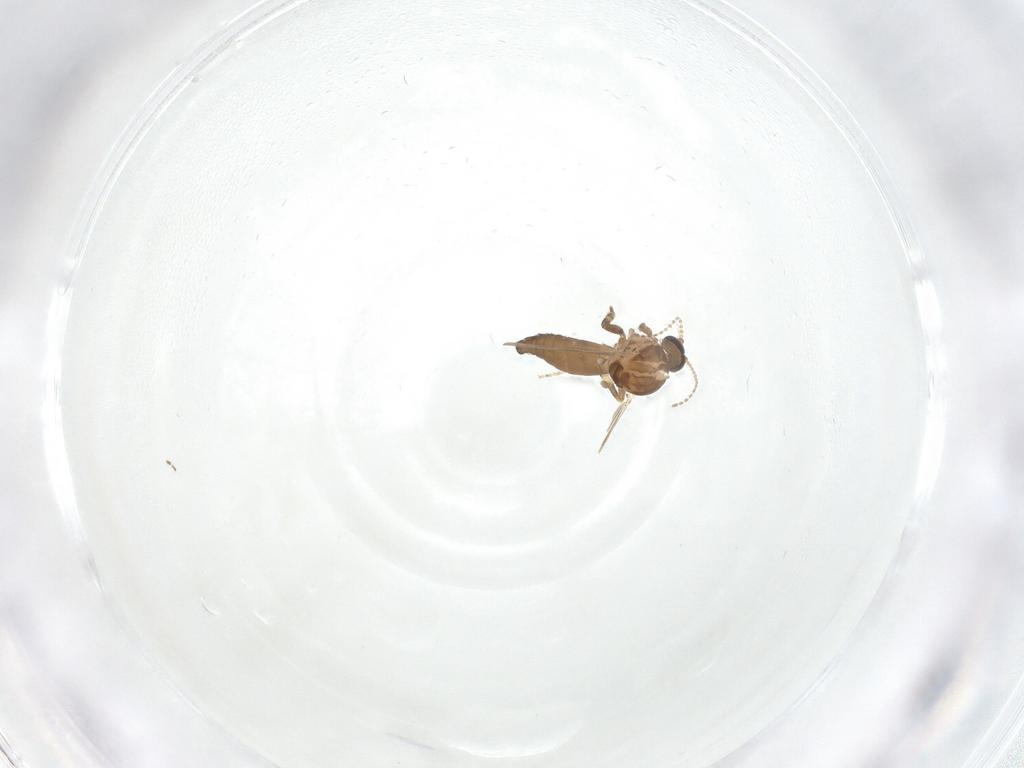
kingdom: Animalia
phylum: Arthropoda
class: Insecta
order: Diptera
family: Ceratopogonidae
